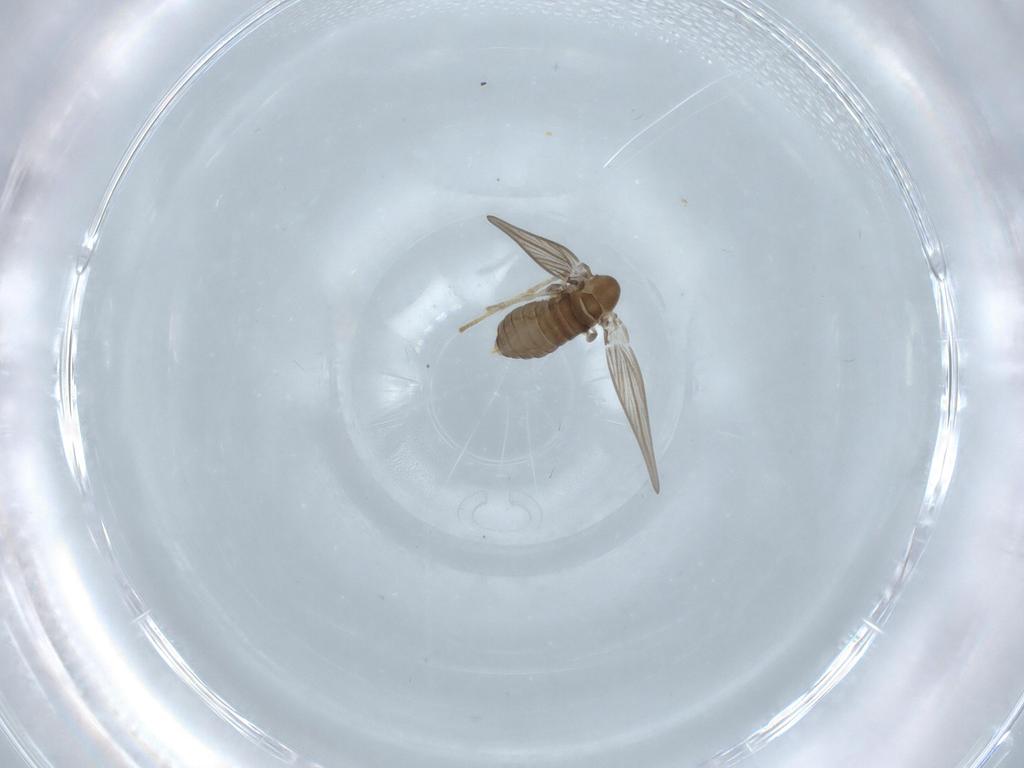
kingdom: Animalia
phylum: Arthropoda
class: Insecta
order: Diptera
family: Psychodidae
